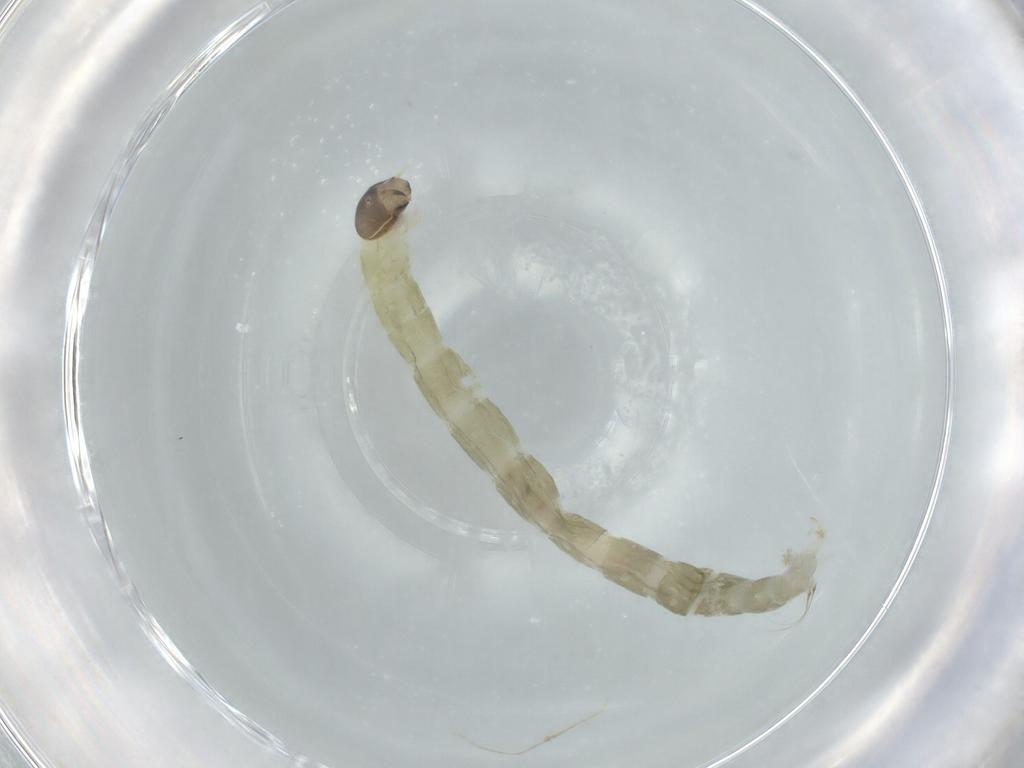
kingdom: Animalia
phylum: Arthropoda
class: Insecta
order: Diptera
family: Chironomidae
